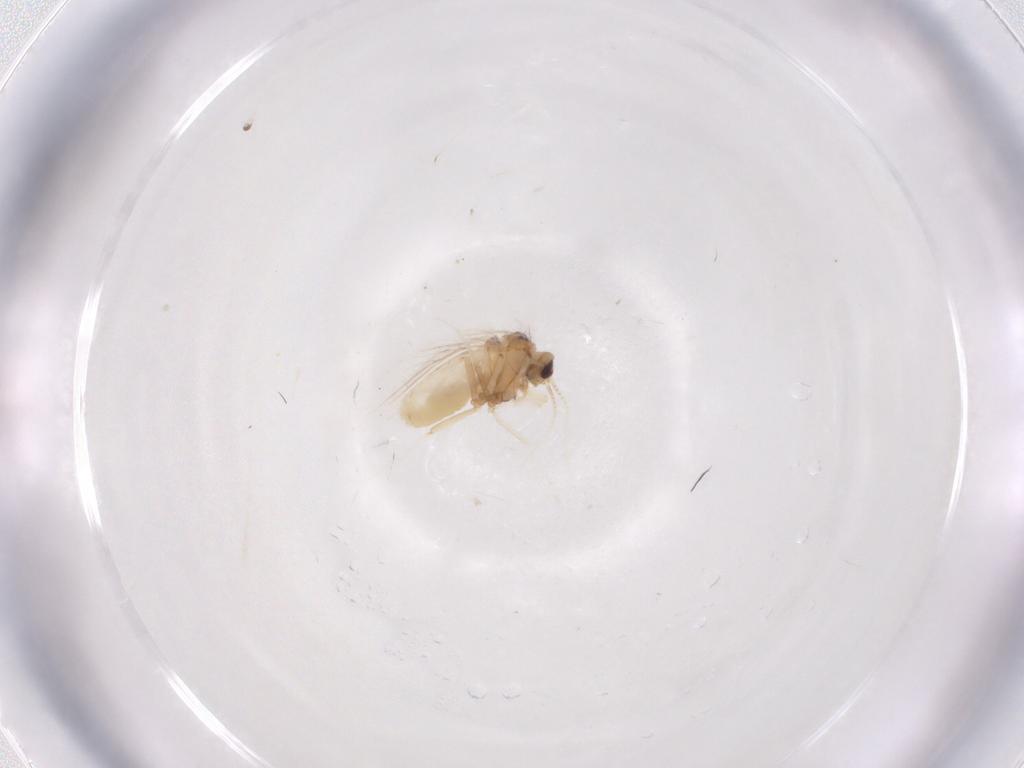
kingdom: Animalia
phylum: Arthropoda
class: Insecta
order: Neuroptera
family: Coniopterygidae
